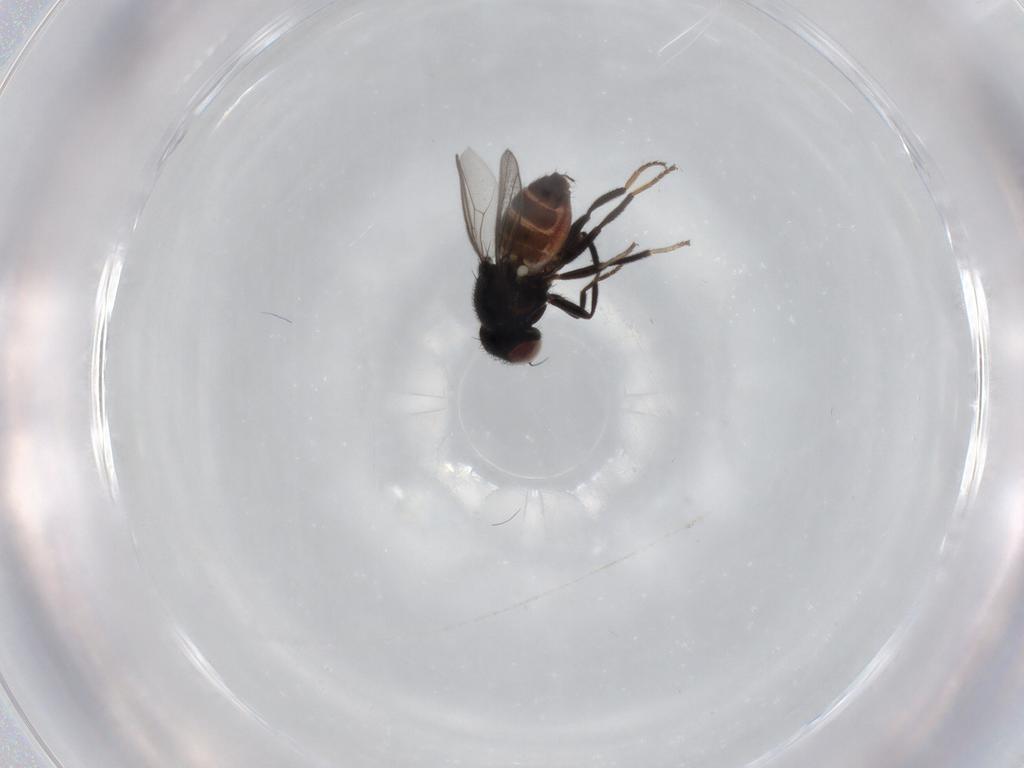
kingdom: Animalia
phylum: Arthropoda
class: Insecta
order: Diptera
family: Chloropidae
